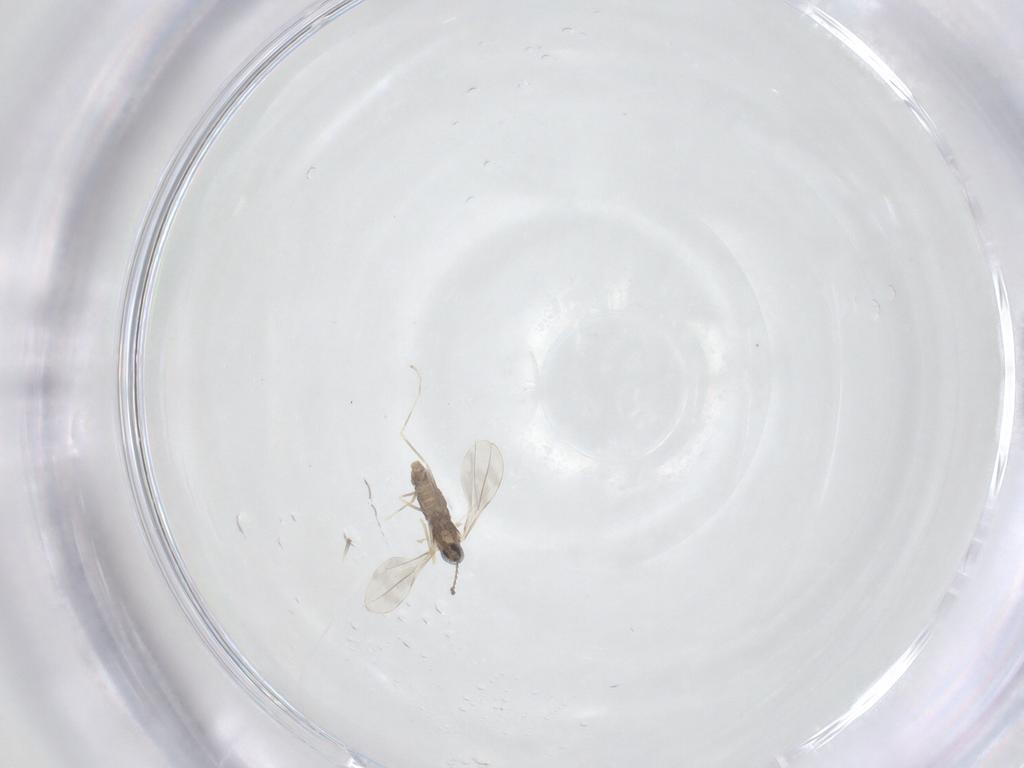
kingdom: Animalia
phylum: Arthropoda
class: Insecta
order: Diptera
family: Cecidomyiidae
